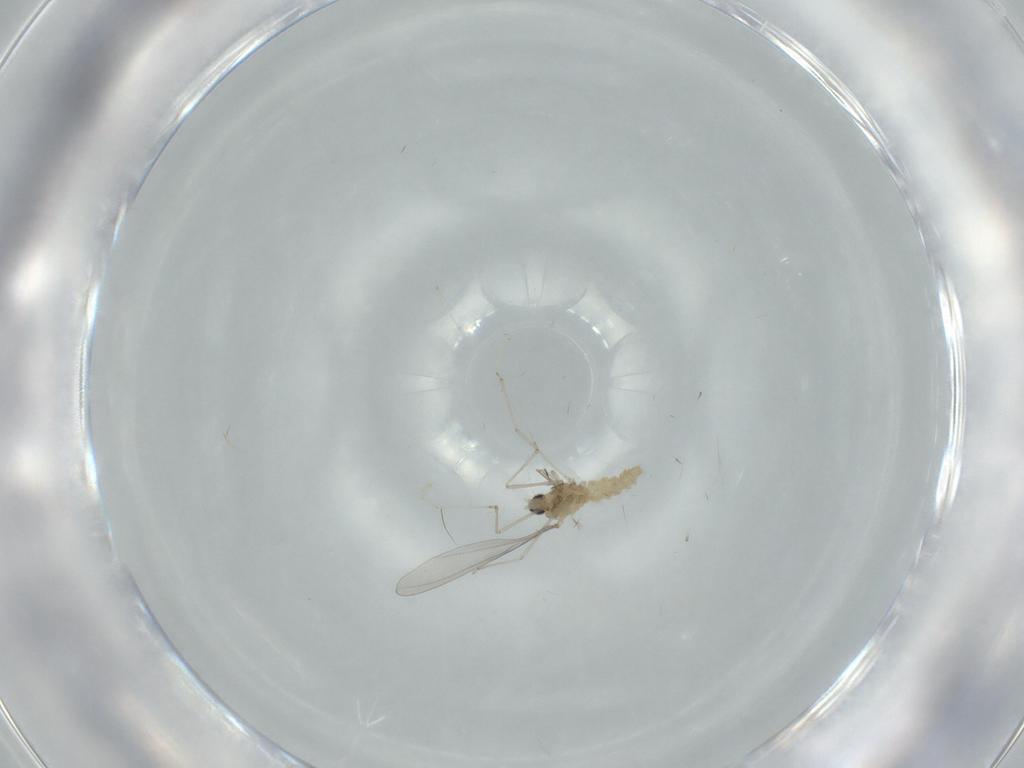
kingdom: Animalia
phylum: Arthropoda
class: Insecta
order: Diptera
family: Milichiidae
